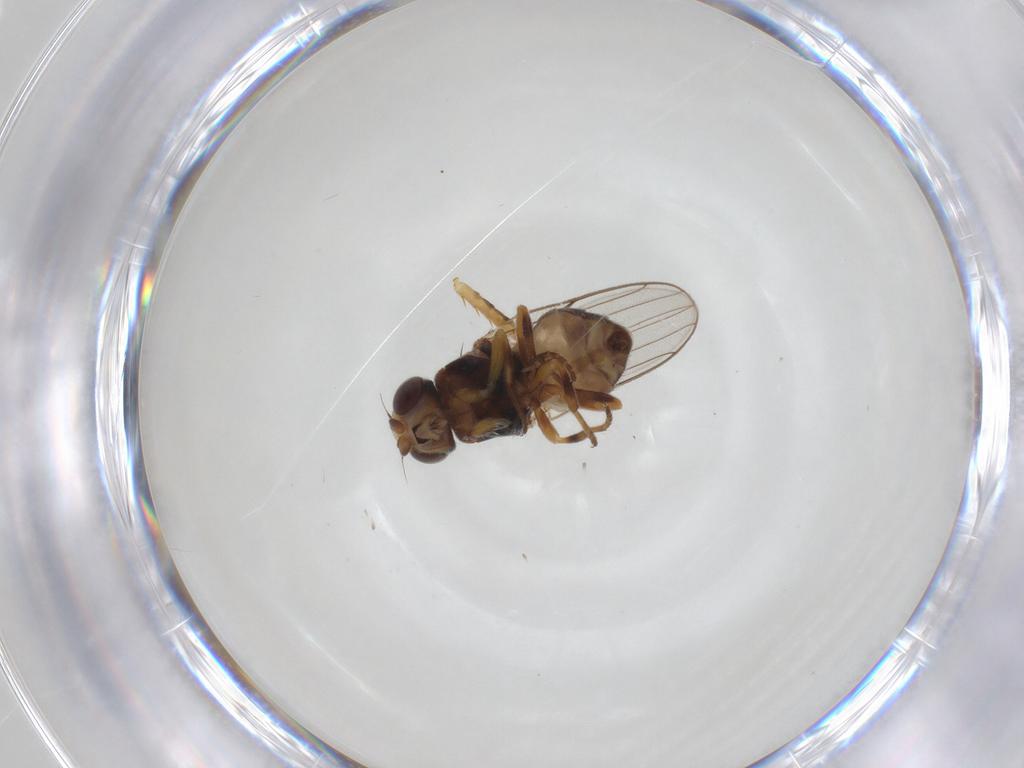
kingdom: Animalia
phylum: Arthropoda
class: Insecta
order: Diptera
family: Chloropidae
